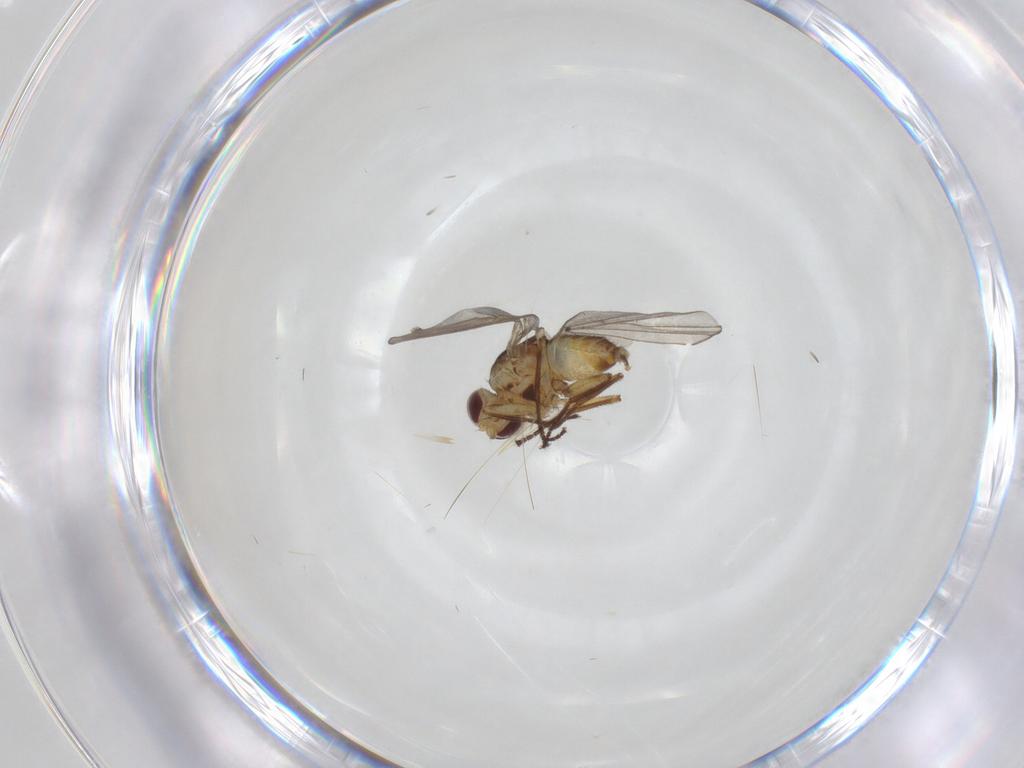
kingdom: Animalia
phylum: Arthropoda
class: Insecta
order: Diptera
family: Agromyzidae
